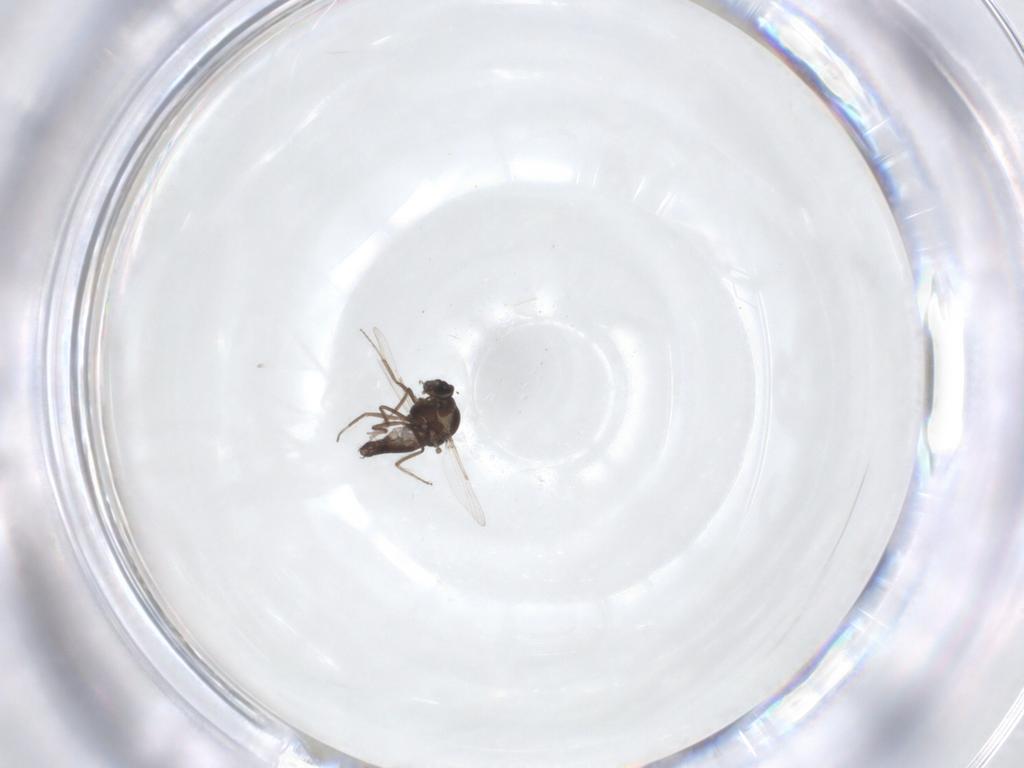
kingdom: Animalia
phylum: Arthropoda
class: Insecta
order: Diptera
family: Ceratopogonidae
